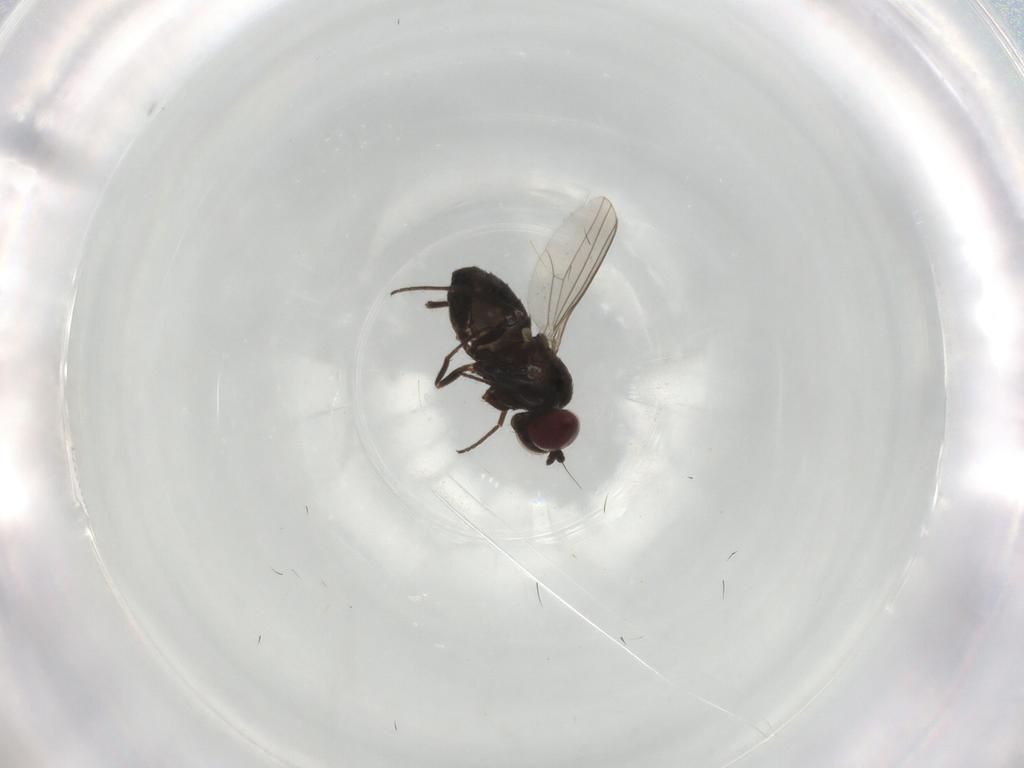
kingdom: Animalia
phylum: Arthropoda
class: Insecta
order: Diptera
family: Dolichopodidae
